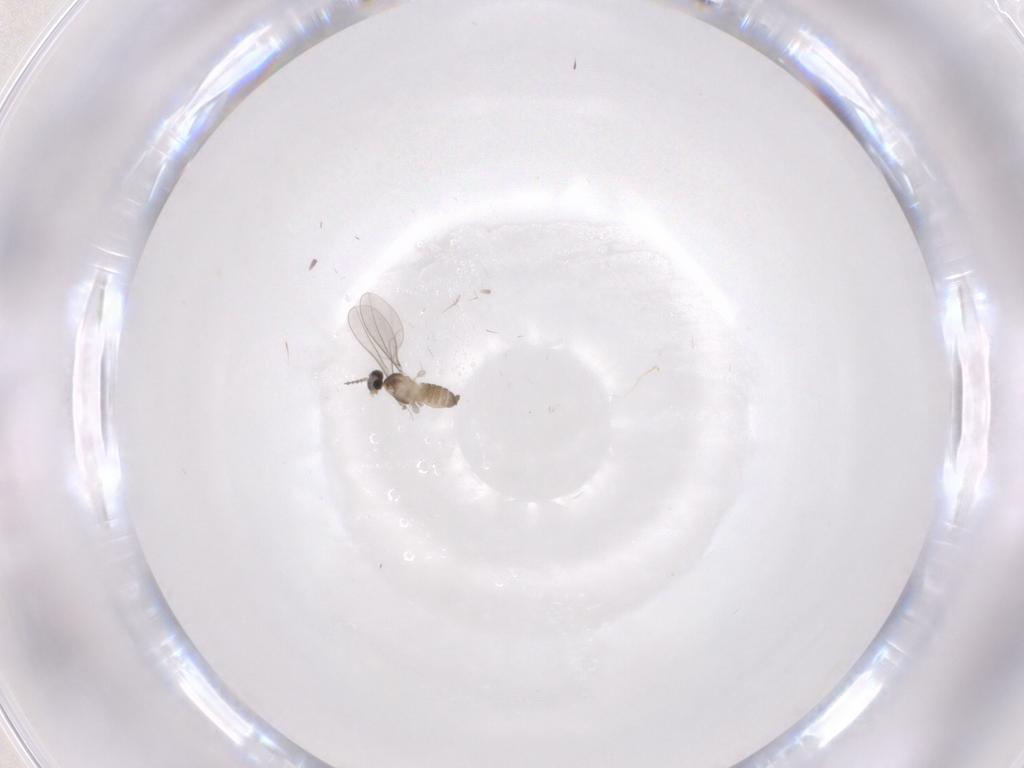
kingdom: Animalia
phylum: Arthropoda
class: Insecta
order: Diptera
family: Cecidomyiidae
